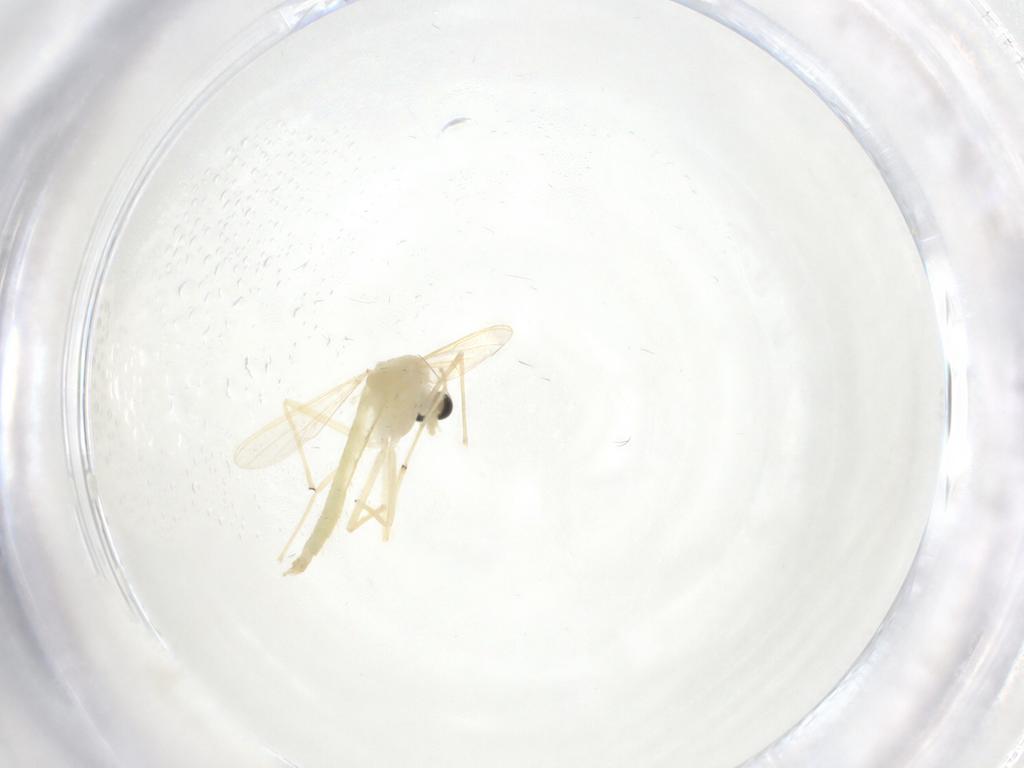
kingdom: Animalia
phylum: Arthropoda
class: Insecta
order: Diptera
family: Chironomidae
